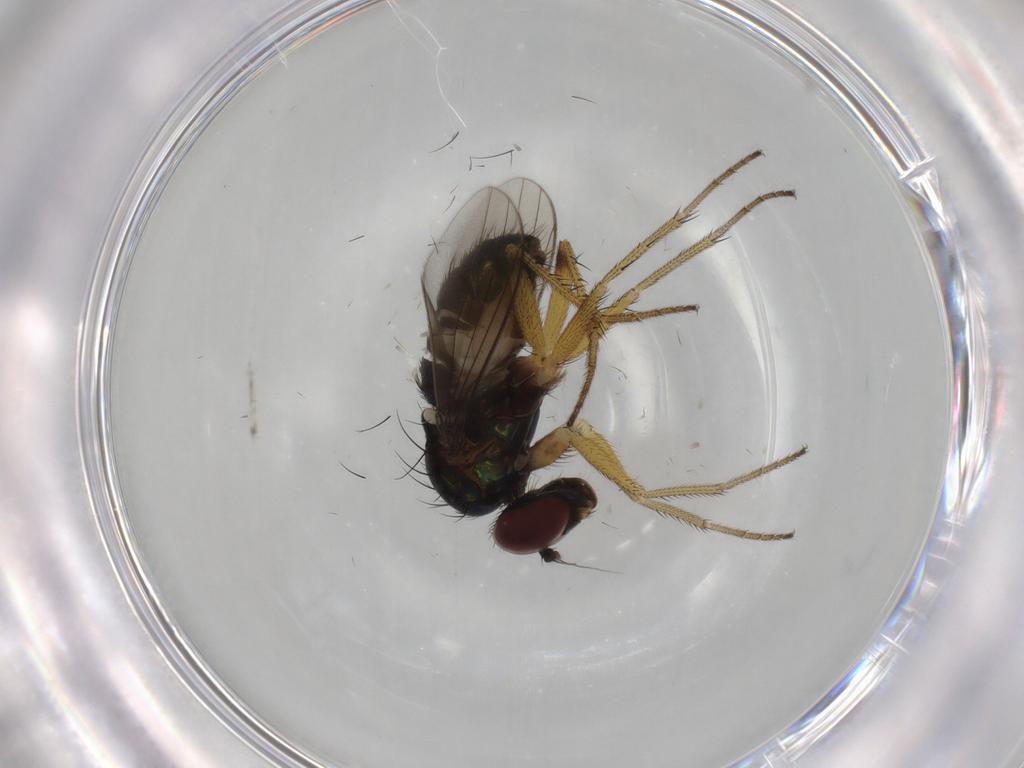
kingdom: Animalia
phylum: Arthropoda
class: Insecta
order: Diptera
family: Dolichopodidae
